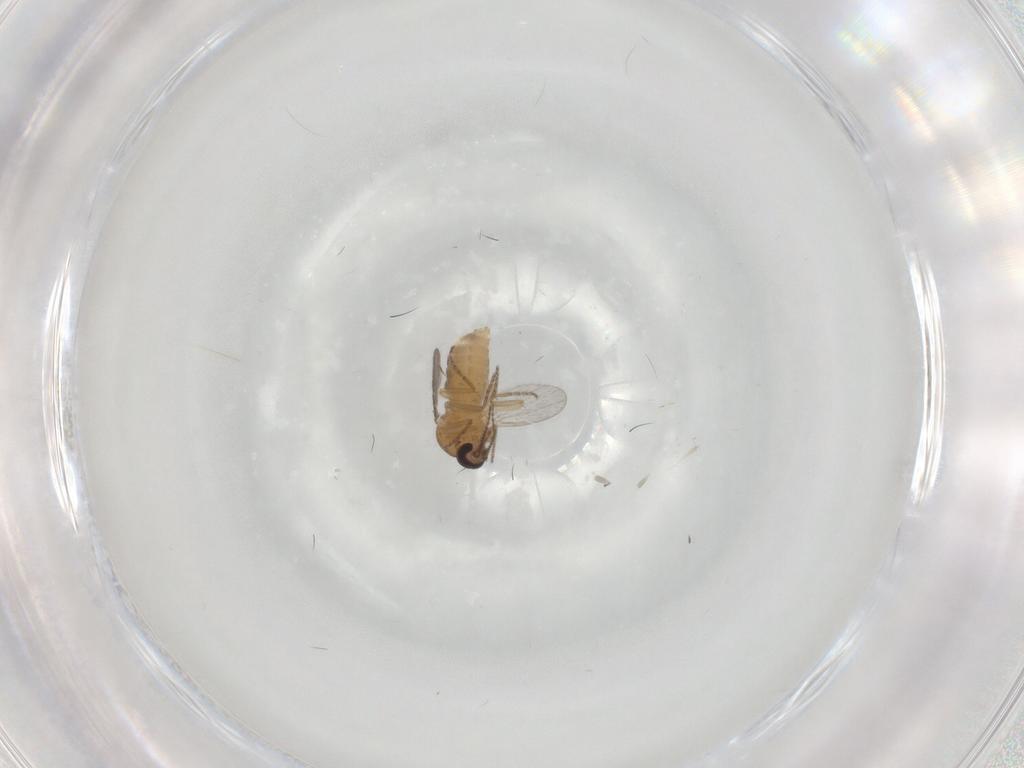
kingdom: Animalia
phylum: Arthropoda
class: Insecta
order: Diptera
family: Ceratopogonidae
